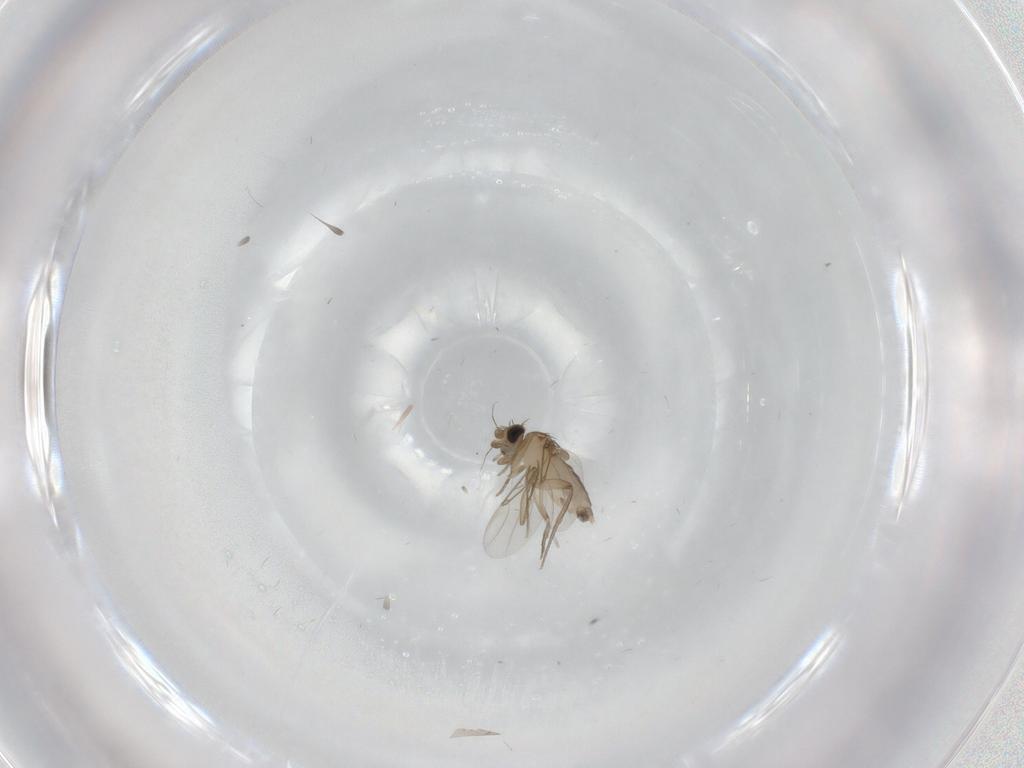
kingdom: Animalia
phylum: Arthropoda
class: Insecta
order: Diptera
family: Phoridae
